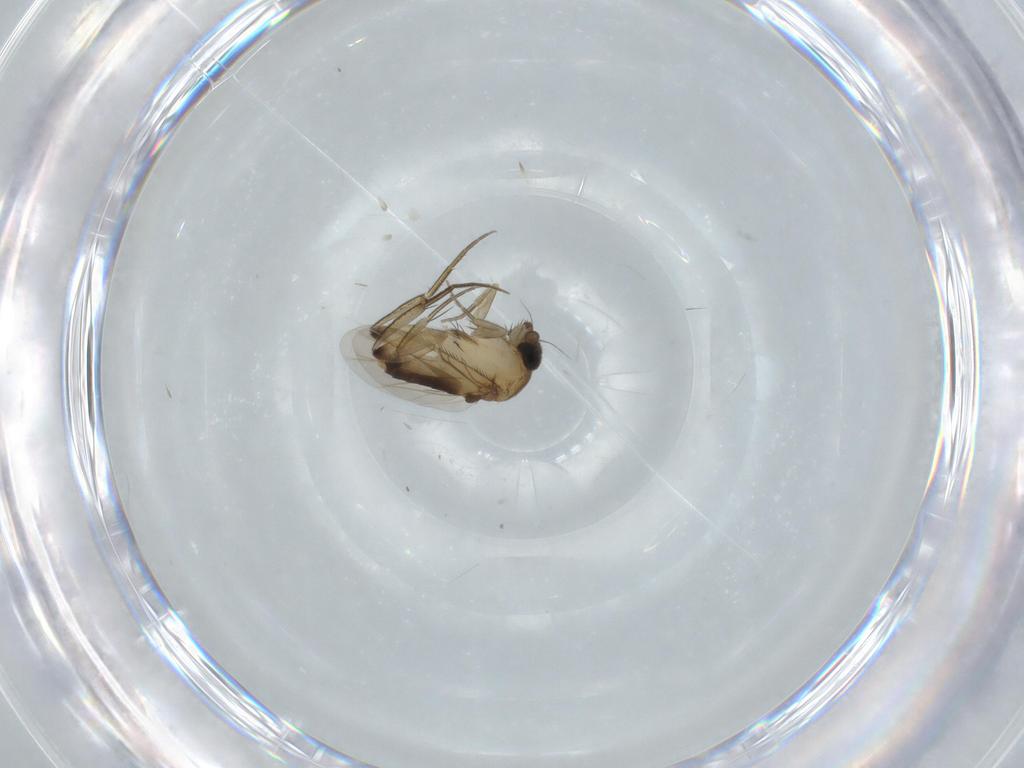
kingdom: Animalia
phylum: Arthropoda
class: Insecta
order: Diptera
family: Phoridae
